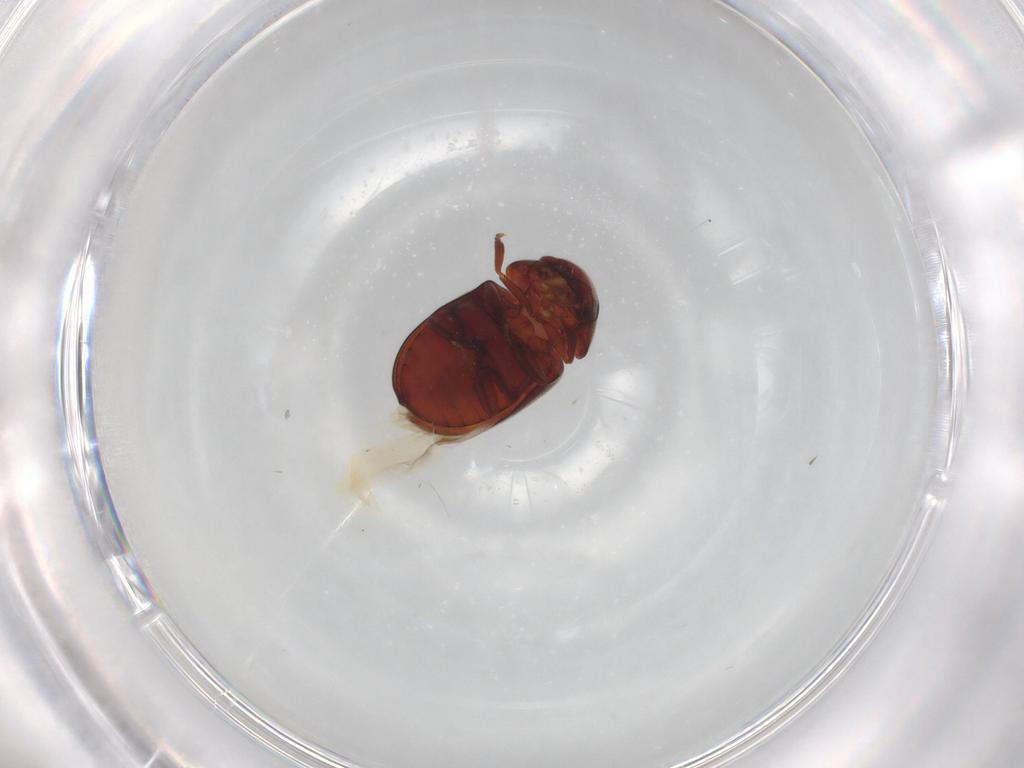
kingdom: Animalia
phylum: Arthropoda
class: Insecta
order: Coleoptera
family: Ptinidae
